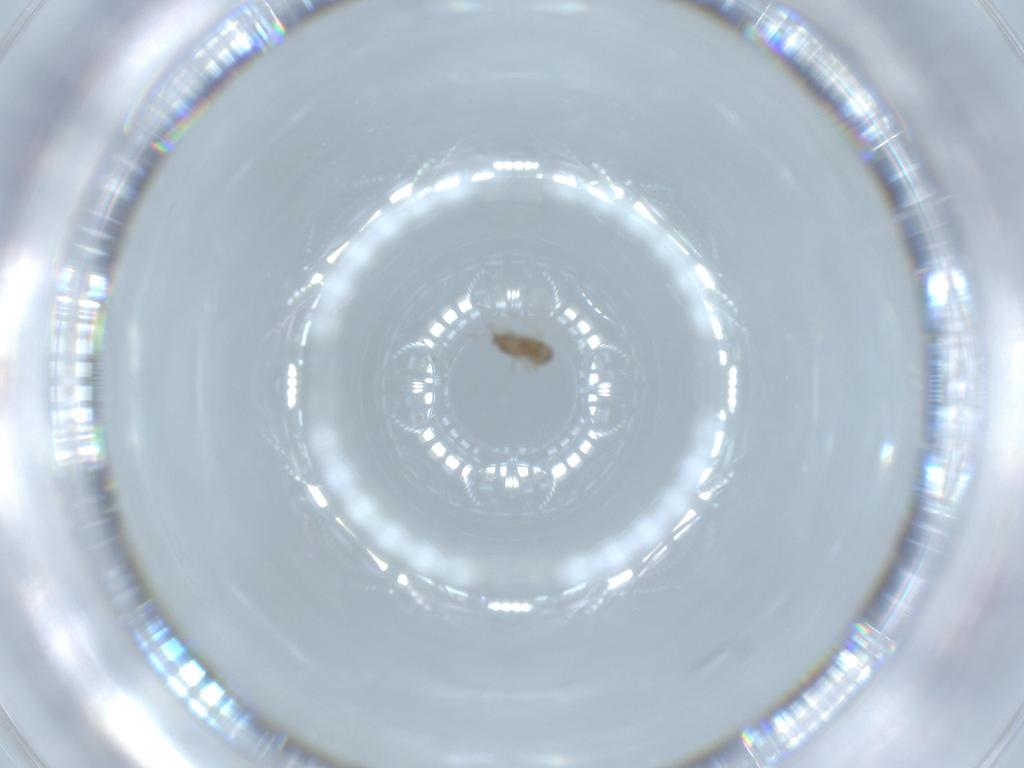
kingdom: Animalia
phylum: Arthropoda
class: Insecta
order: Diptera
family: Cecidomyiidae
